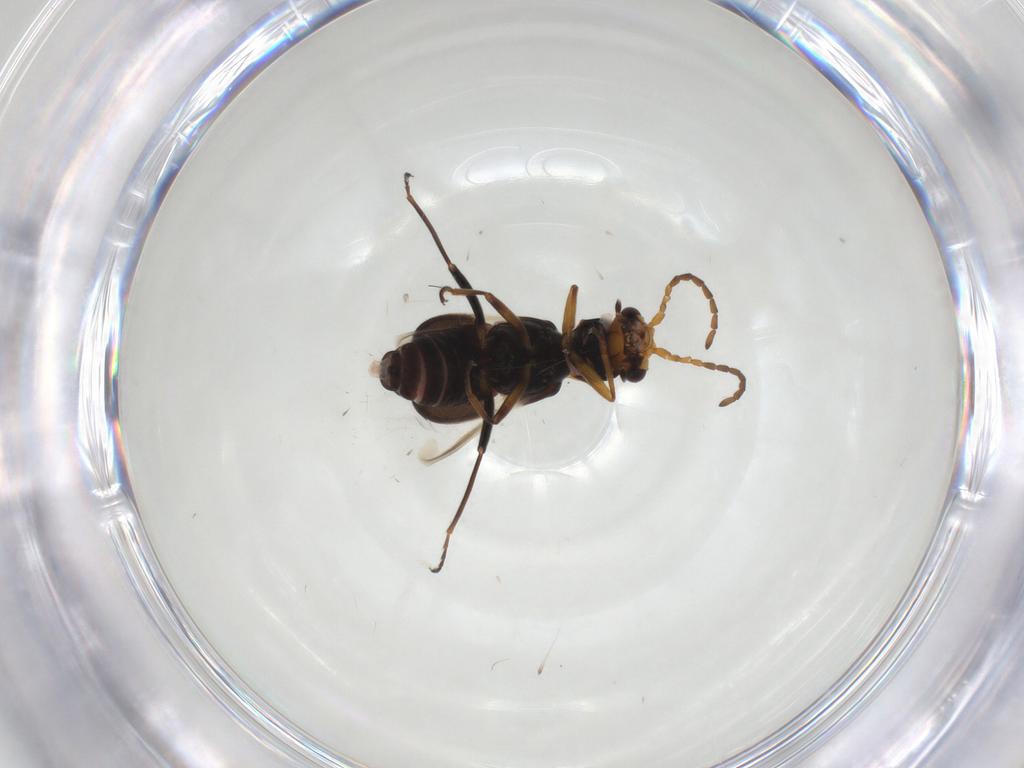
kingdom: Animalia
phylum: Arthropoda
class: Insecta
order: Coleoptera
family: Melyridae
